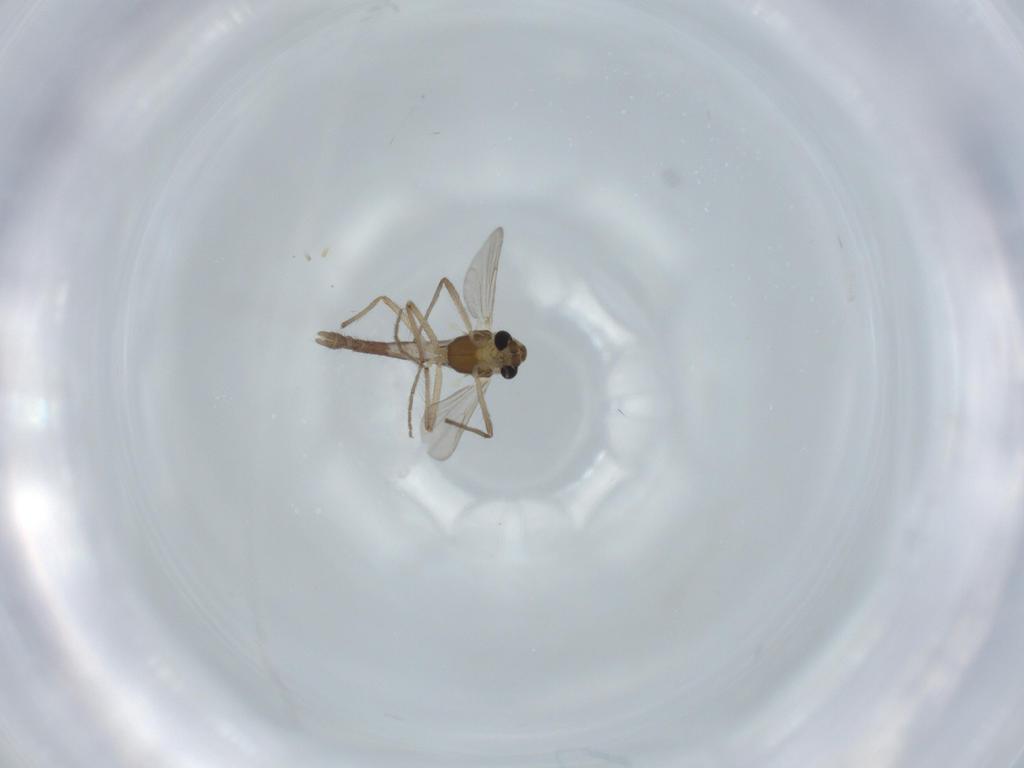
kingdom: Animalia
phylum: Arthropoda
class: Insecta
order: Diptera
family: Chironomidae
